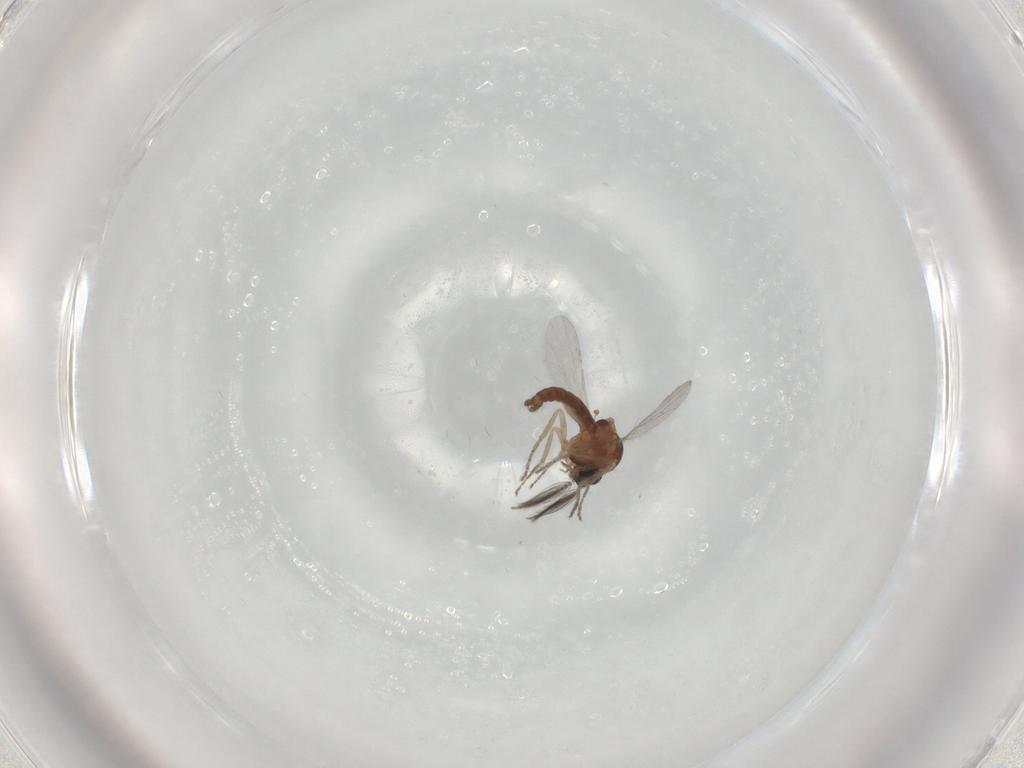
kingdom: Animalia
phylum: Arthropoda
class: Insecta
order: Diptera
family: Ceratopogonidae
